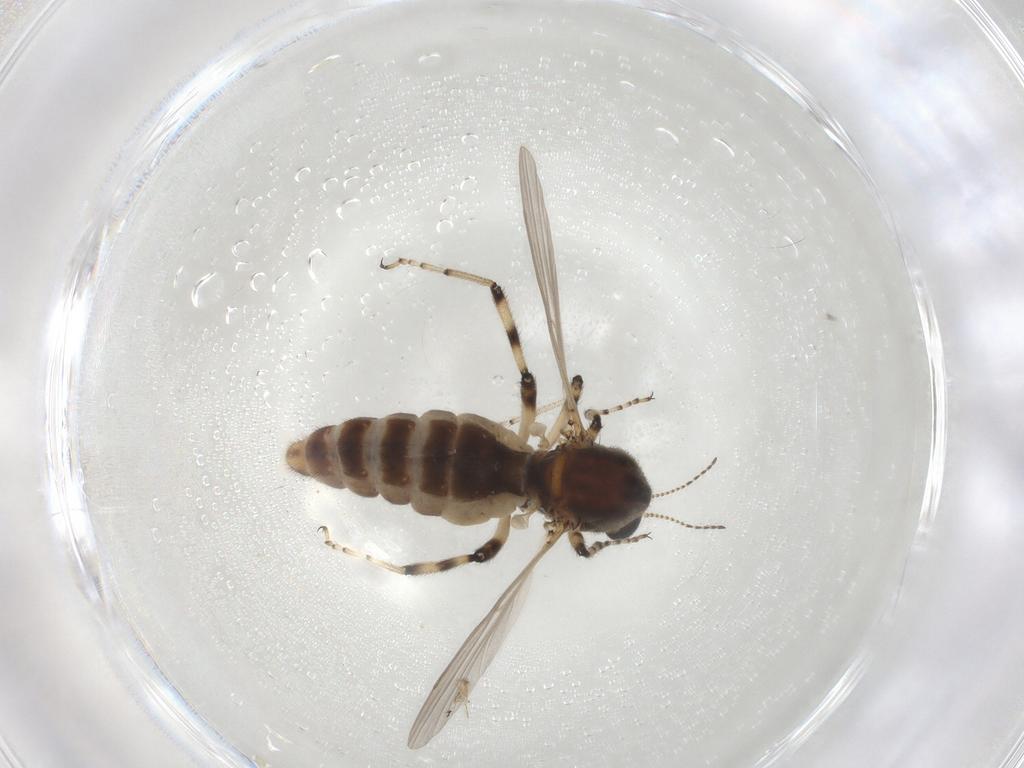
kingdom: Animalia
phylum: Arthropoda
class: Insecta
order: Diptera
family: Ceratopogonidae
